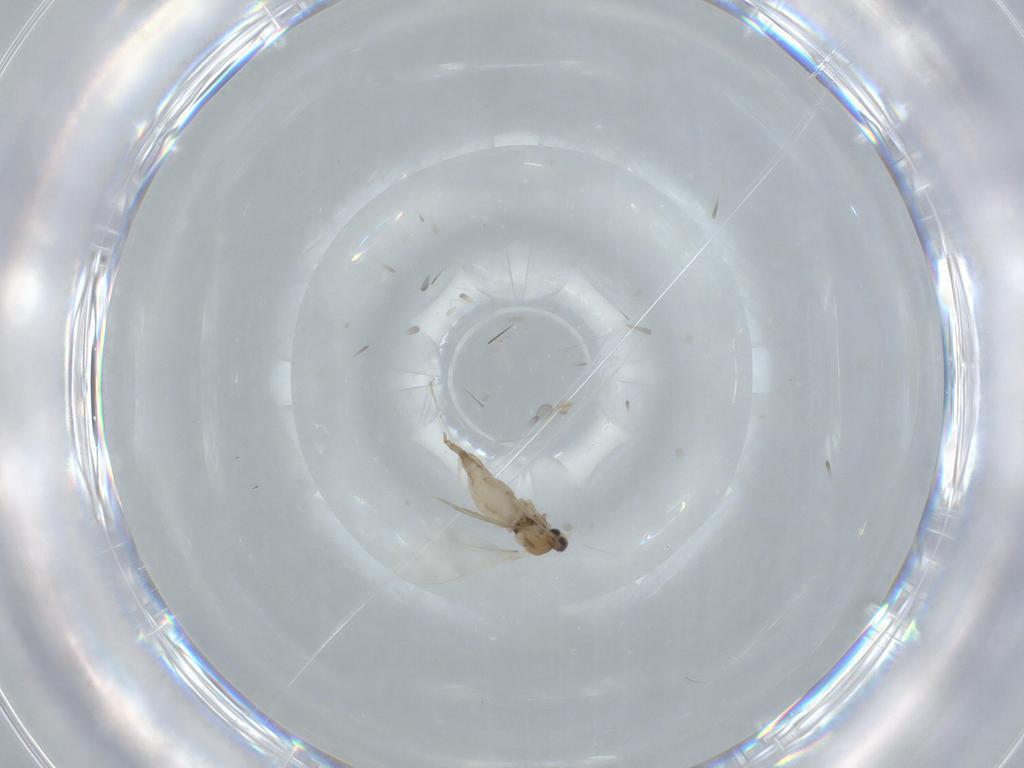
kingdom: Animalia
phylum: Arthropoda
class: Insecta
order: Diptera
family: Cecidomyiidae
